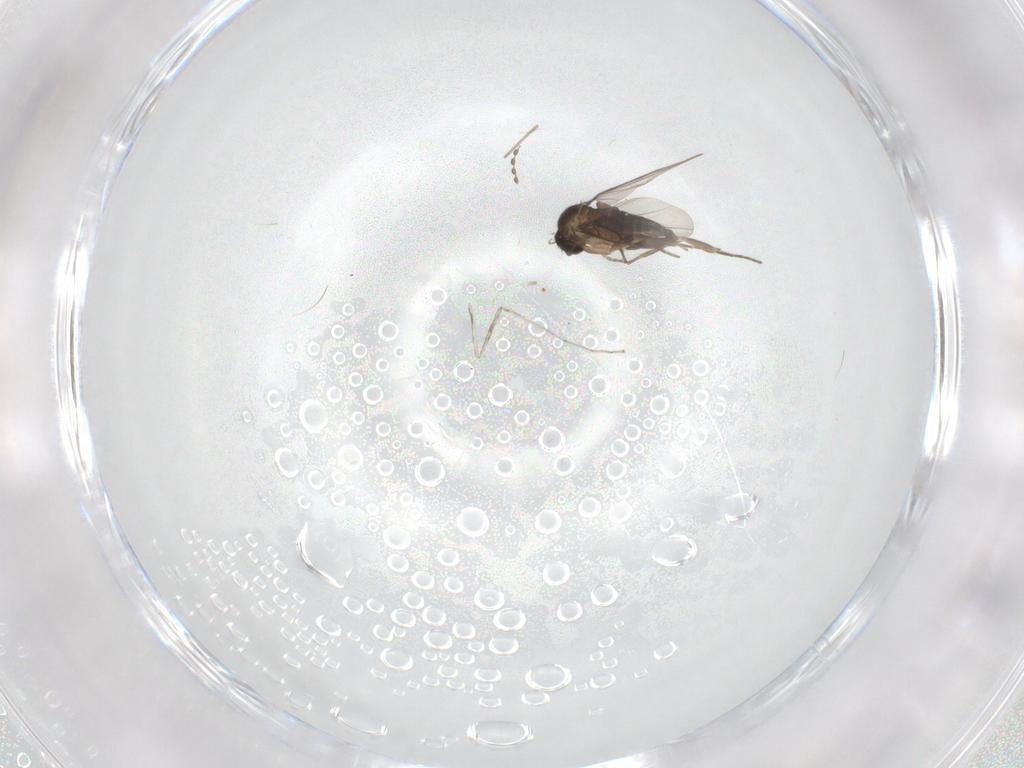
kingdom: Animalia
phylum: Arthropoda
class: Insecta
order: Diptera
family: Cecidomyiidae
